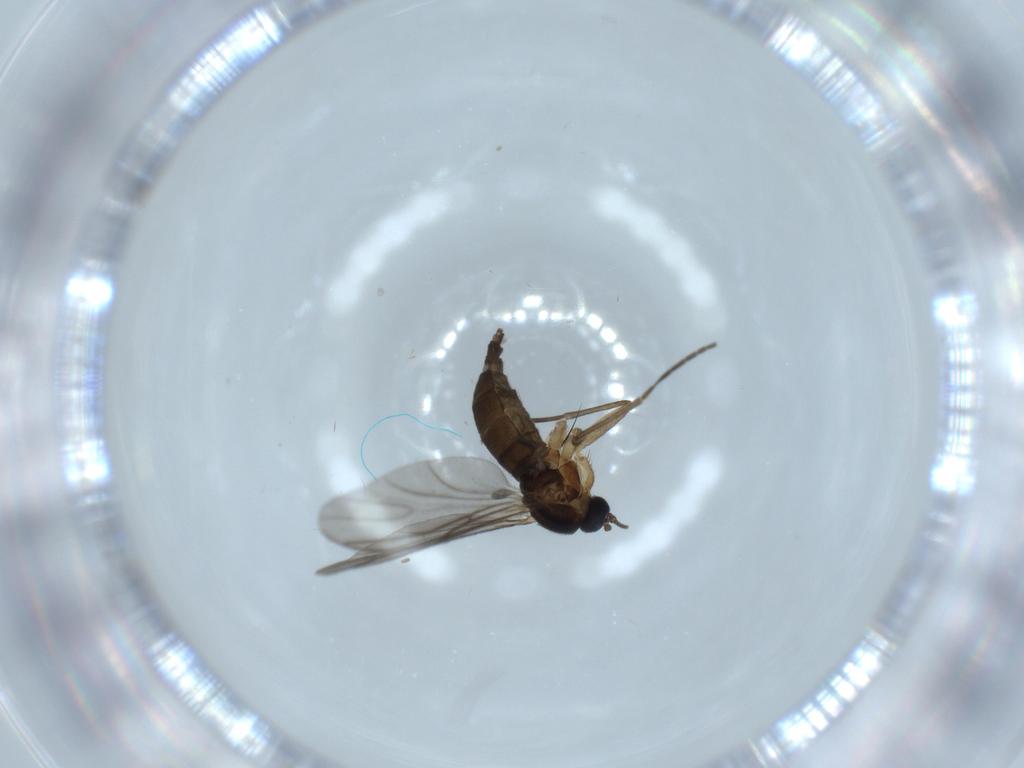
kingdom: Animalia
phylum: Arthropoda
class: Insecta
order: Diptera
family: Sciaridae
